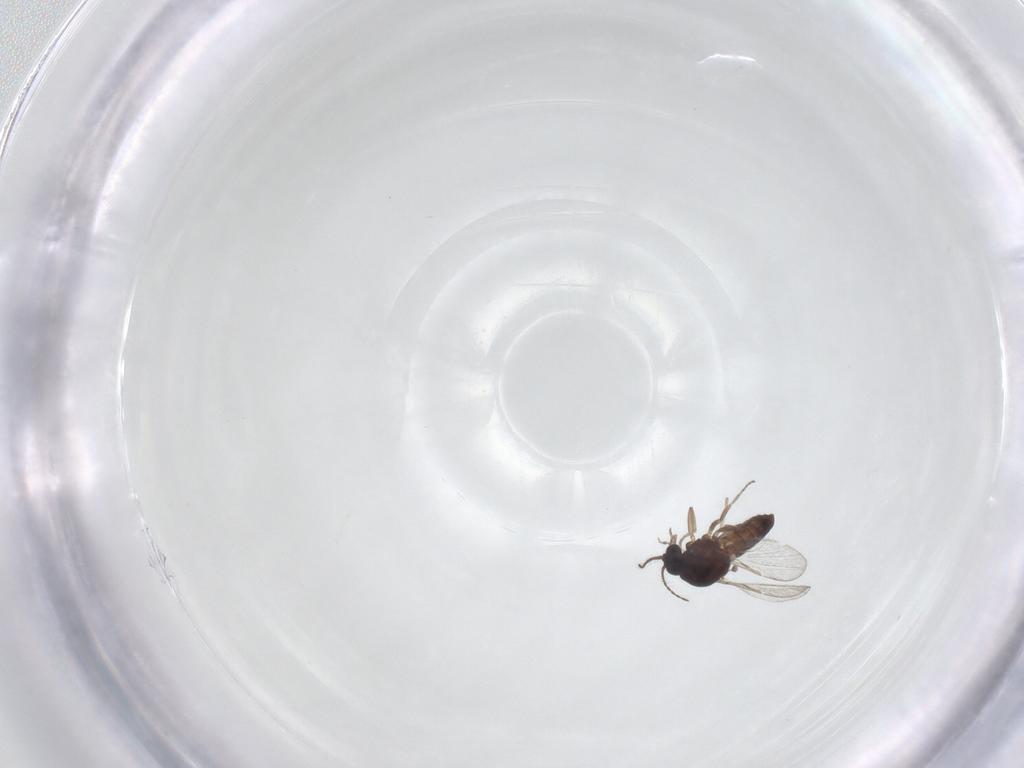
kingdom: Animalia
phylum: Arthropoda
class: Insecta
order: Diptera
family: Ceratopogonidae
